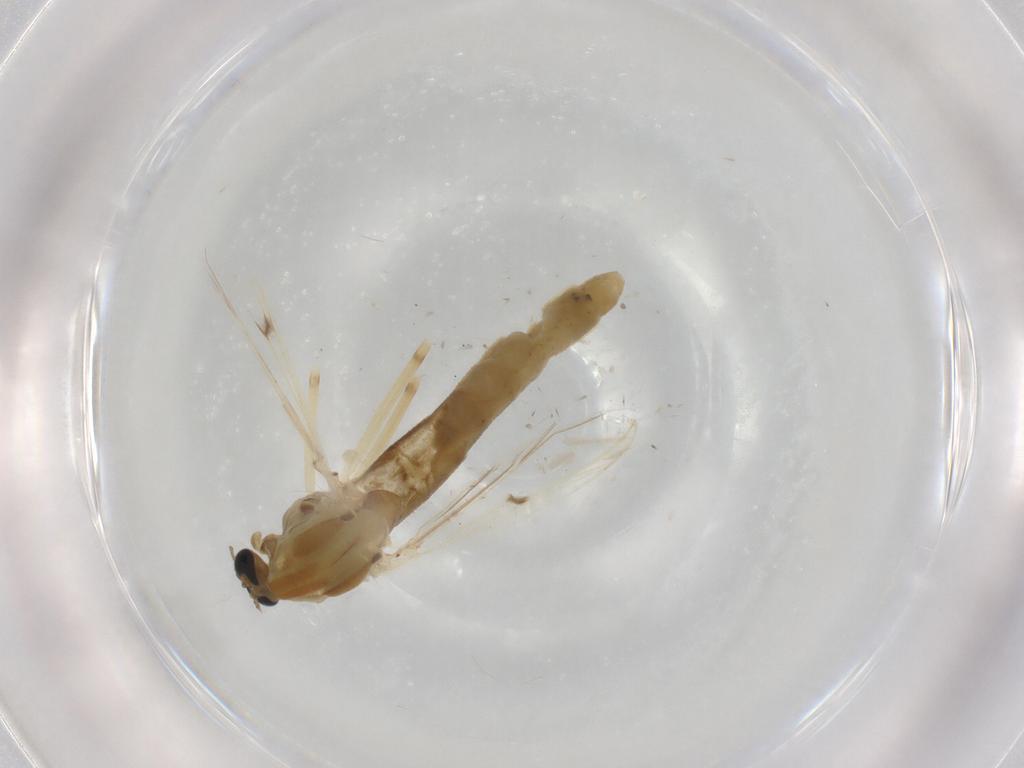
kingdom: Animalia
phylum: Arthropoda
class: Insecta
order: Diptera
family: Chironomidae
